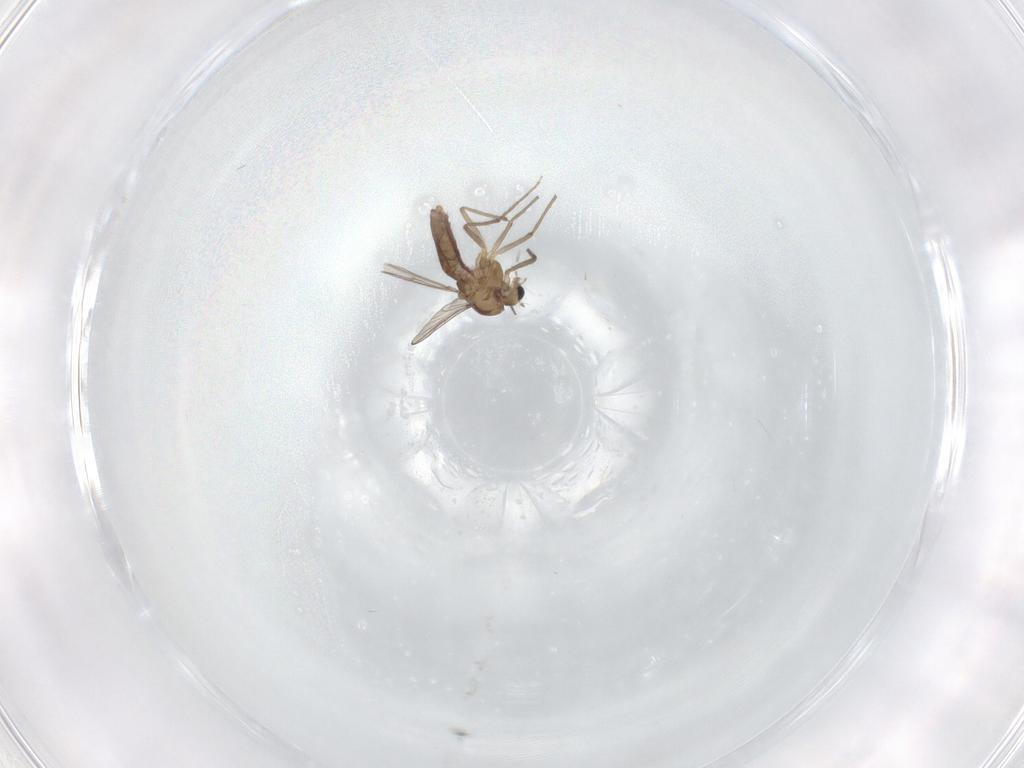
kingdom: Animalia
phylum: Arthropoda
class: Insecta
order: Diptera
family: Chironomidae
